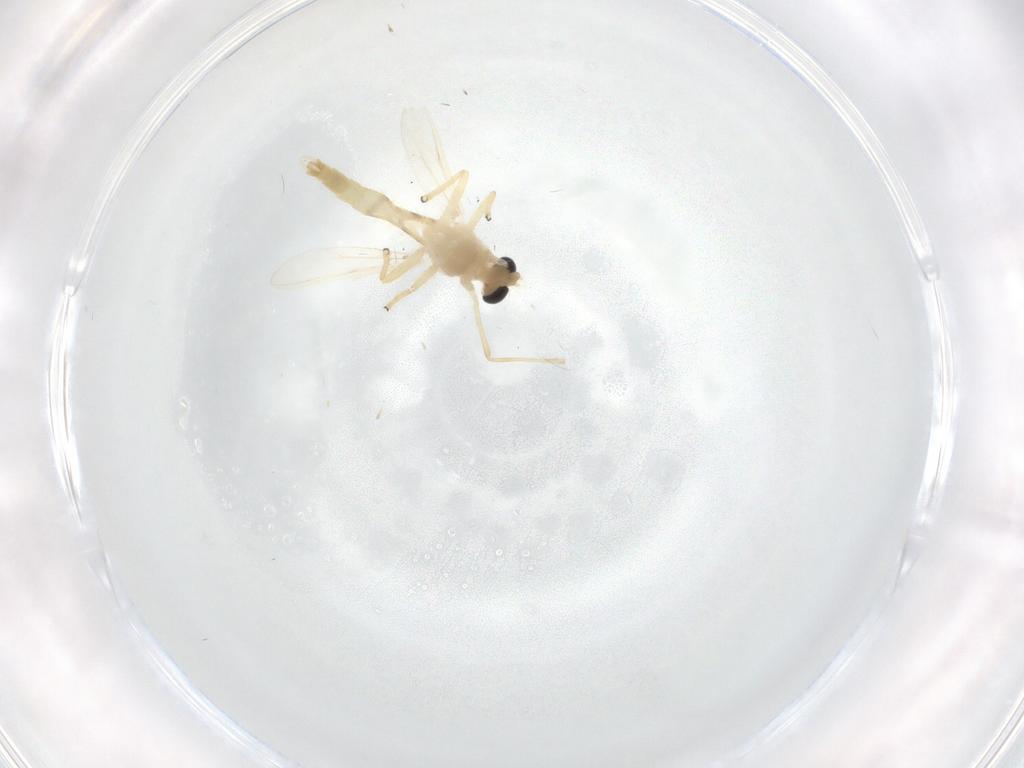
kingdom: Animalia
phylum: Arthropoda
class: Insecta
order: Diptera
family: Chironomidae
